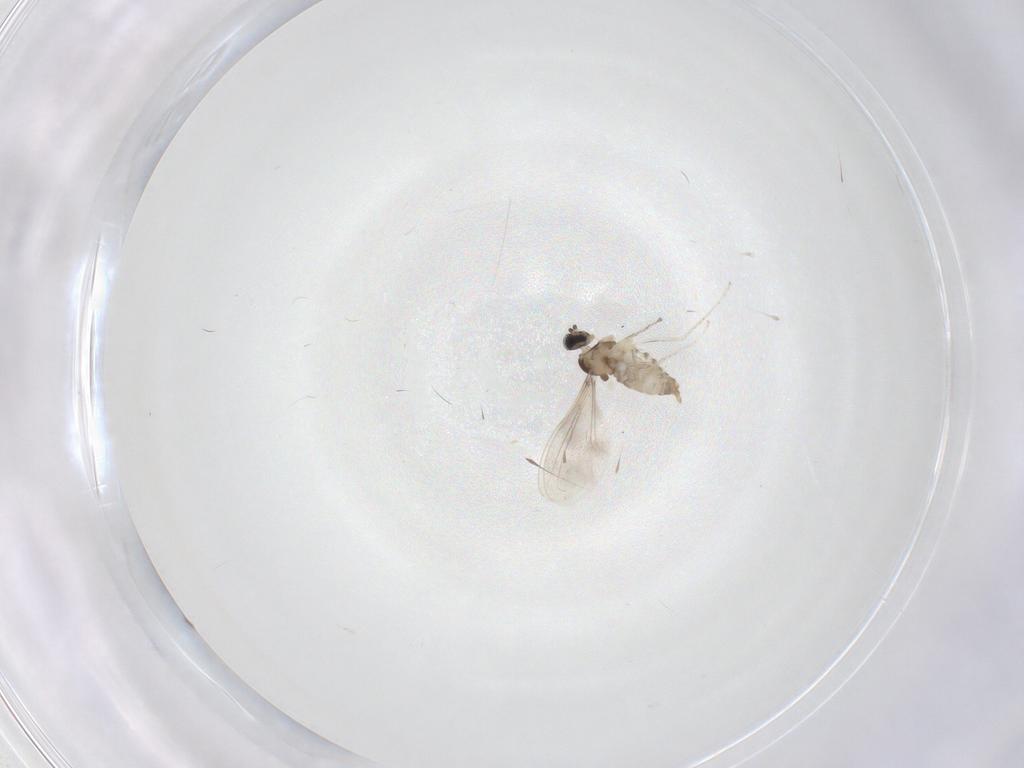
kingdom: Animalia
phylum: Arthropoda
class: Insecta
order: Diptera
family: Cecidomyiidae
